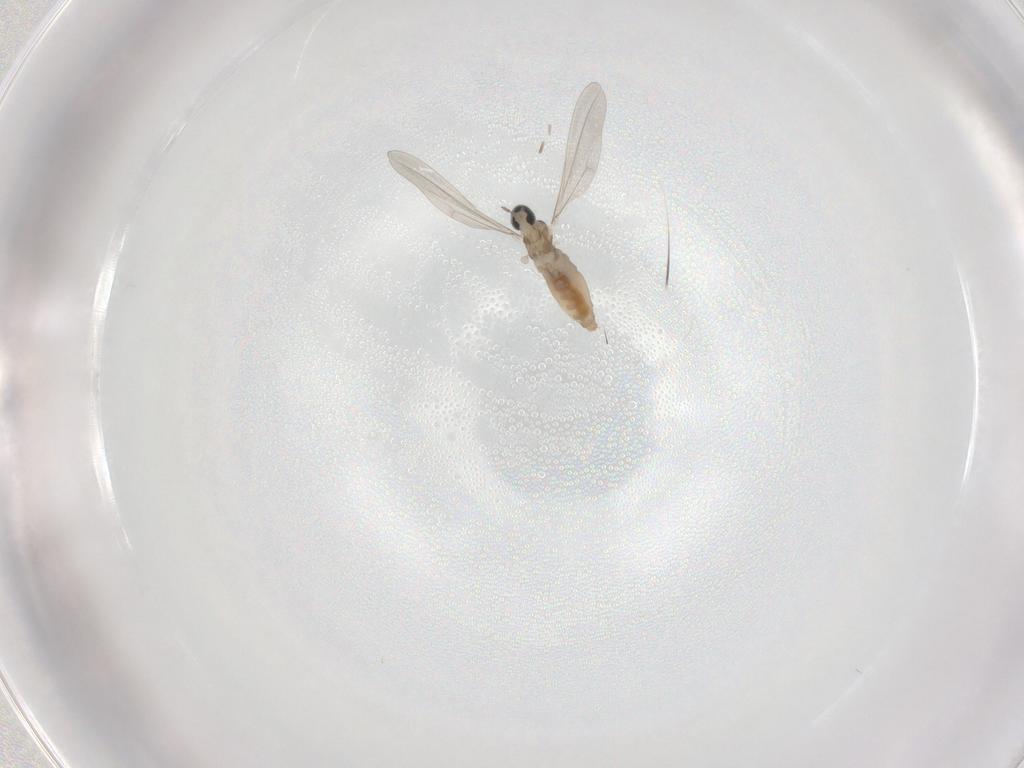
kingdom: Animalia
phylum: Arthropoda
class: Insecta
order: Diptera
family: Cecidomyiidae
